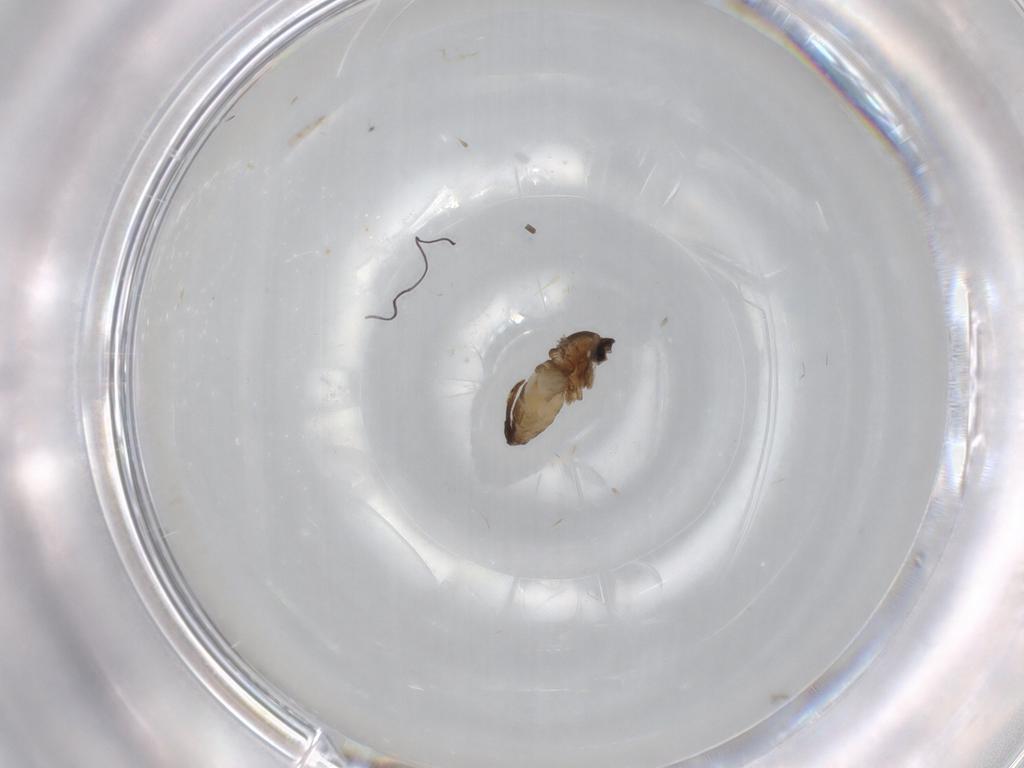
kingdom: Animalia
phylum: Arthropoda
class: Insecta
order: Diptera
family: Cecidomyiidae
